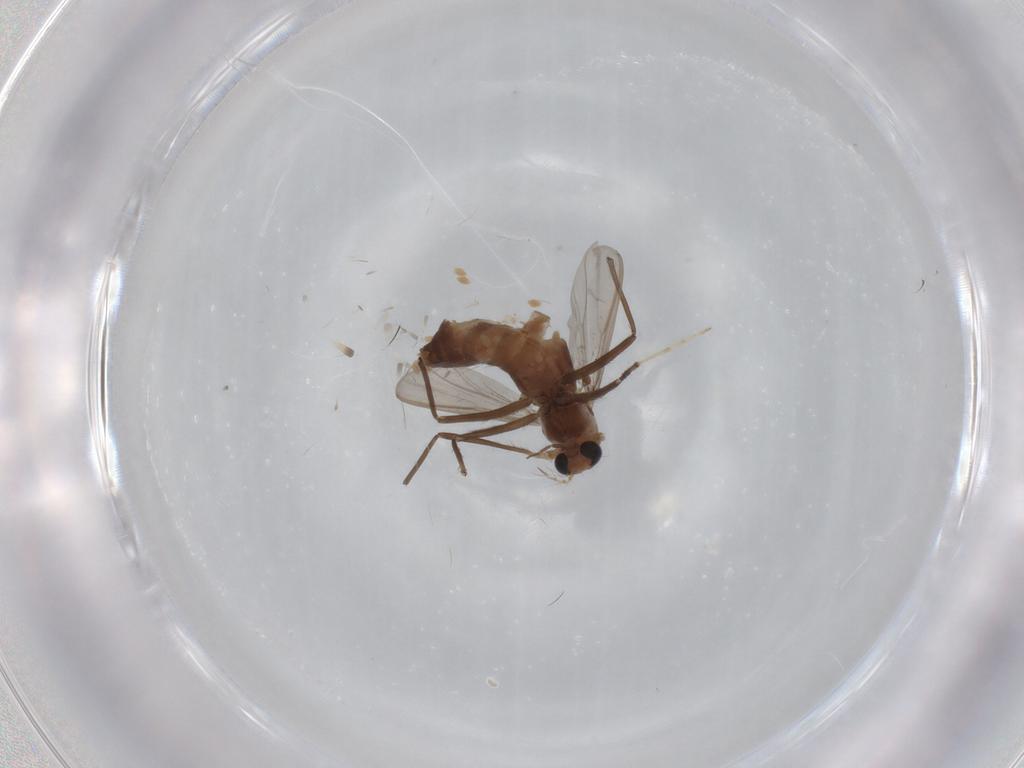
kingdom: Animalia
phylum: Arthropoda
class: Insecta
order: Diptera
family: Chironomidae
